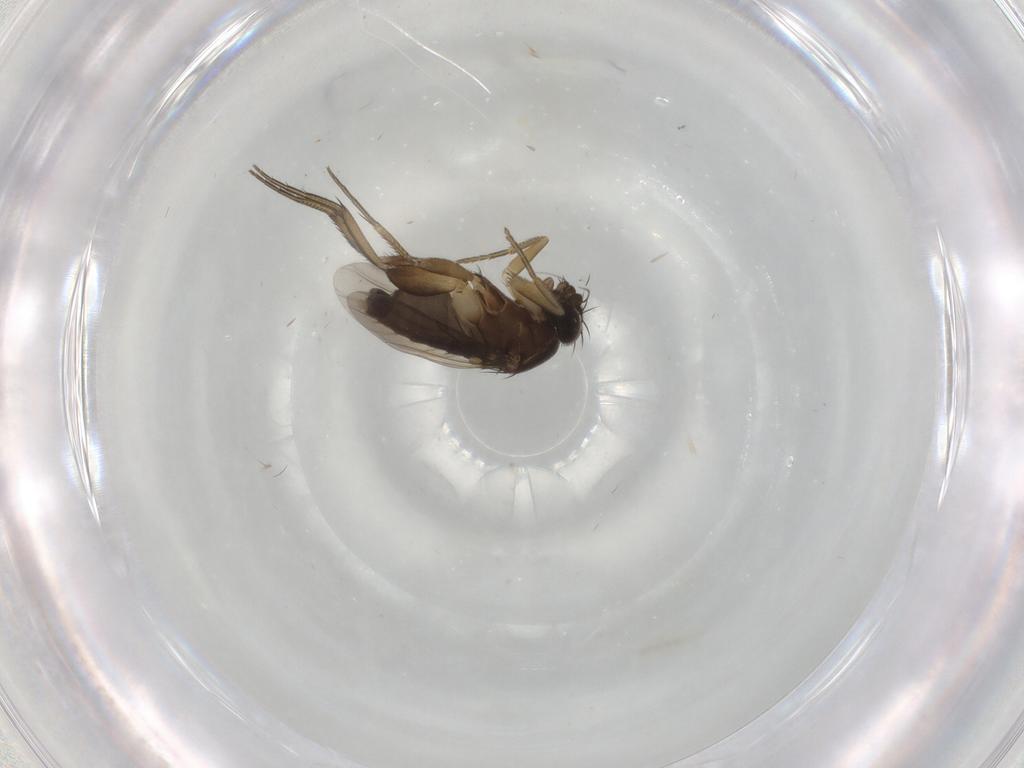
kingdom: Animalia
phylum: Arthropoda
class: Insecta
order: Diptera
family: Phoridae
